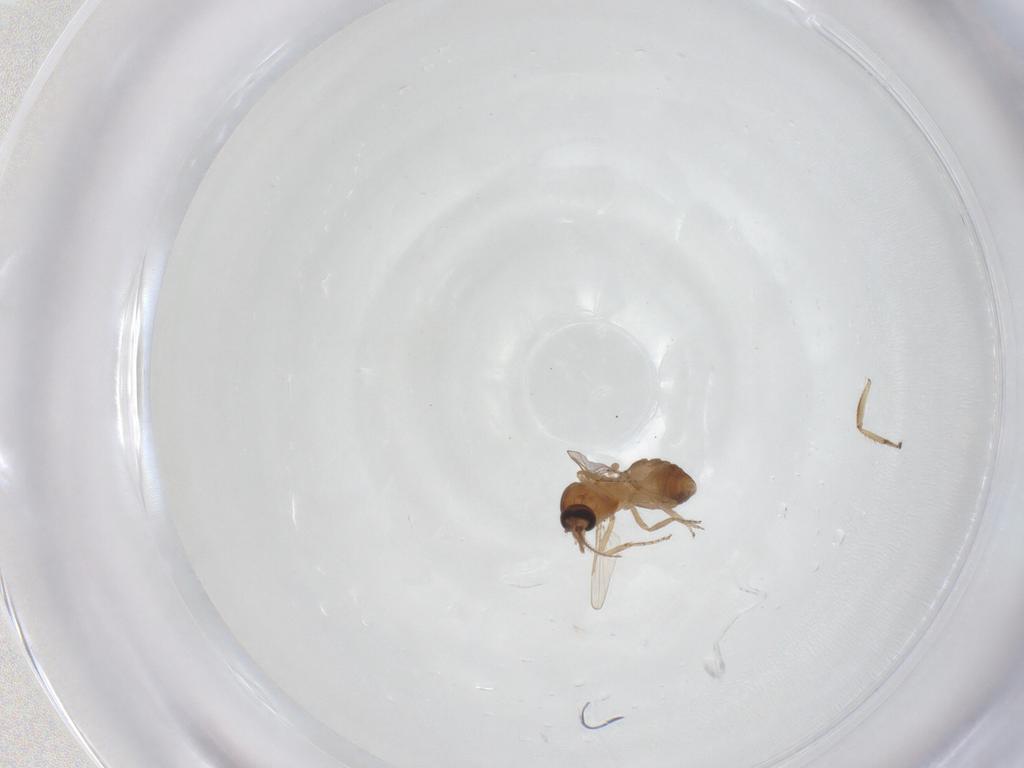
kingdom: Animalia
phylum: Arthropoda
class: Insecta
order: Diptera
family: Ceratopogonidae
